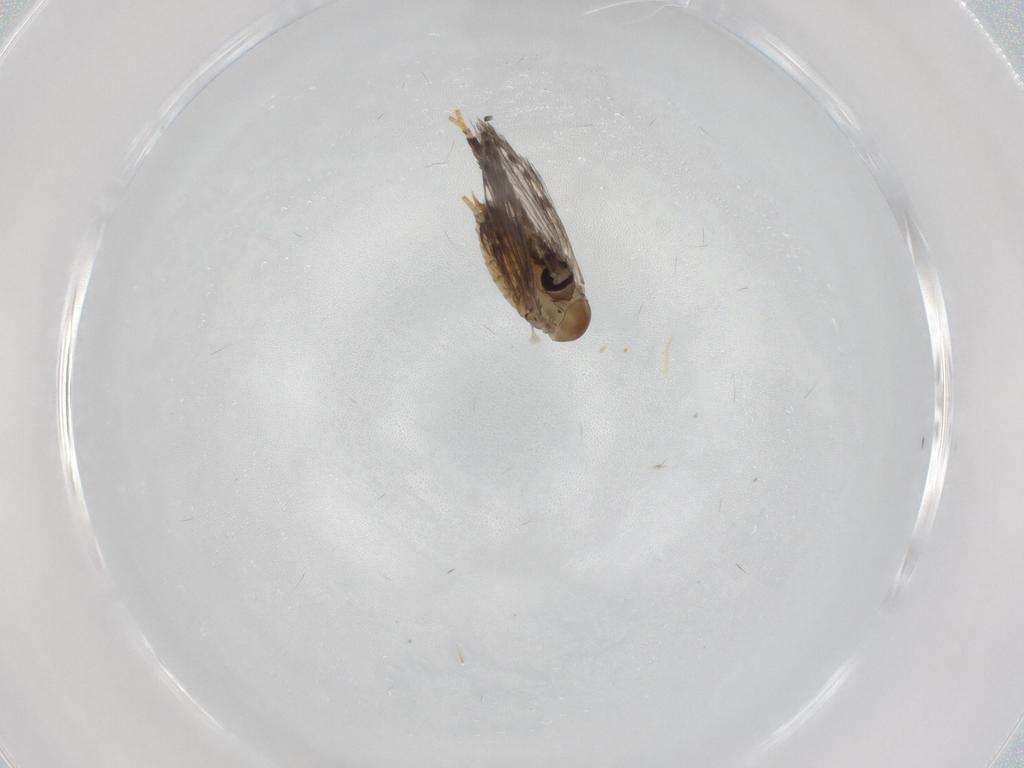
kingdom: Animalia
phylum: Arthropoda
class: Insecta
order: Diptera
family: Psychodidae
